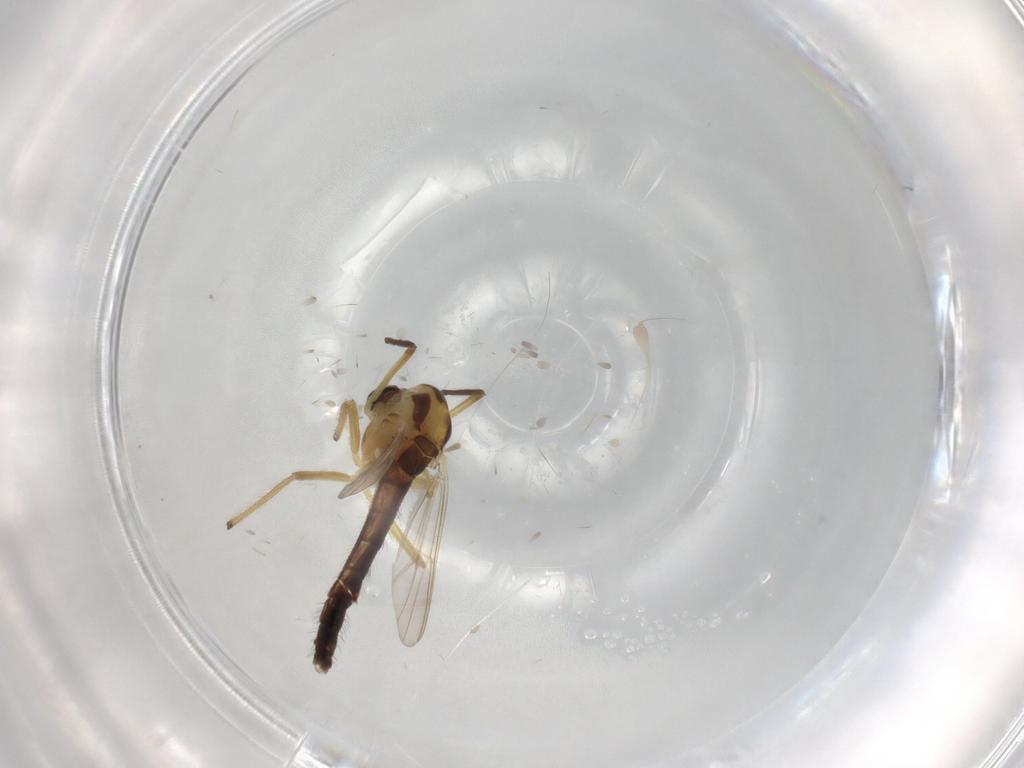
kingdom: Animalia
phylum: Arthropoda
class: Insecta
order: Diptera
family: Chironomidae
